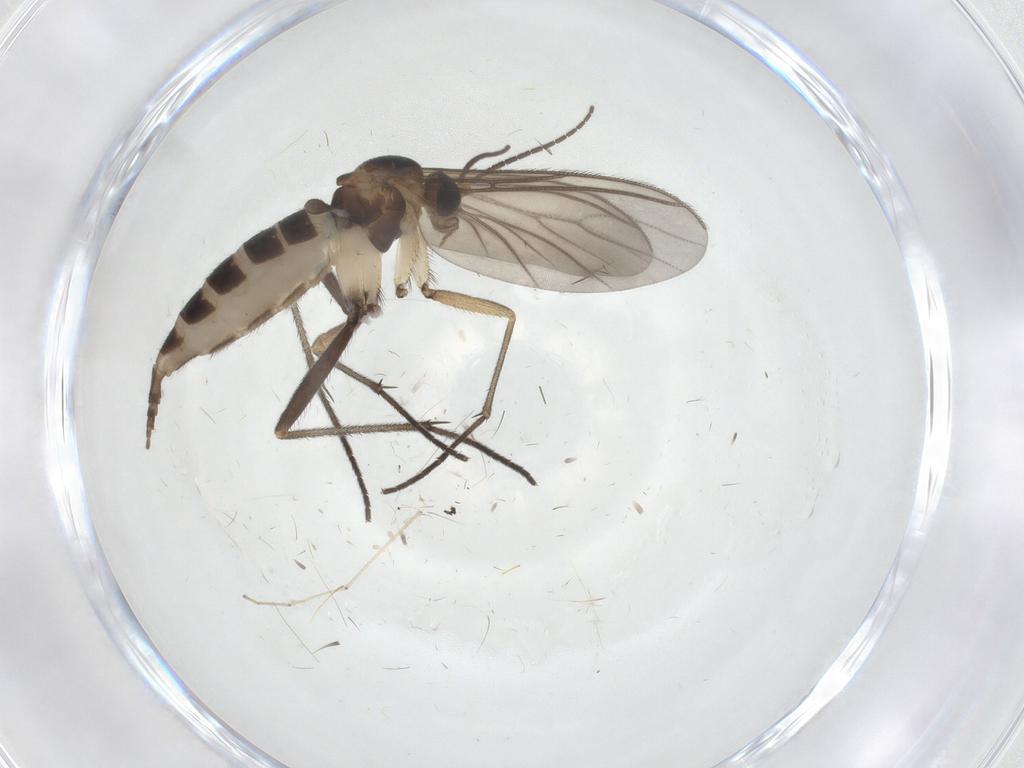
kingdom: Animalia
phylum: Arthropoda
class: Insecta
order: Diptera
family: Sciaridae
